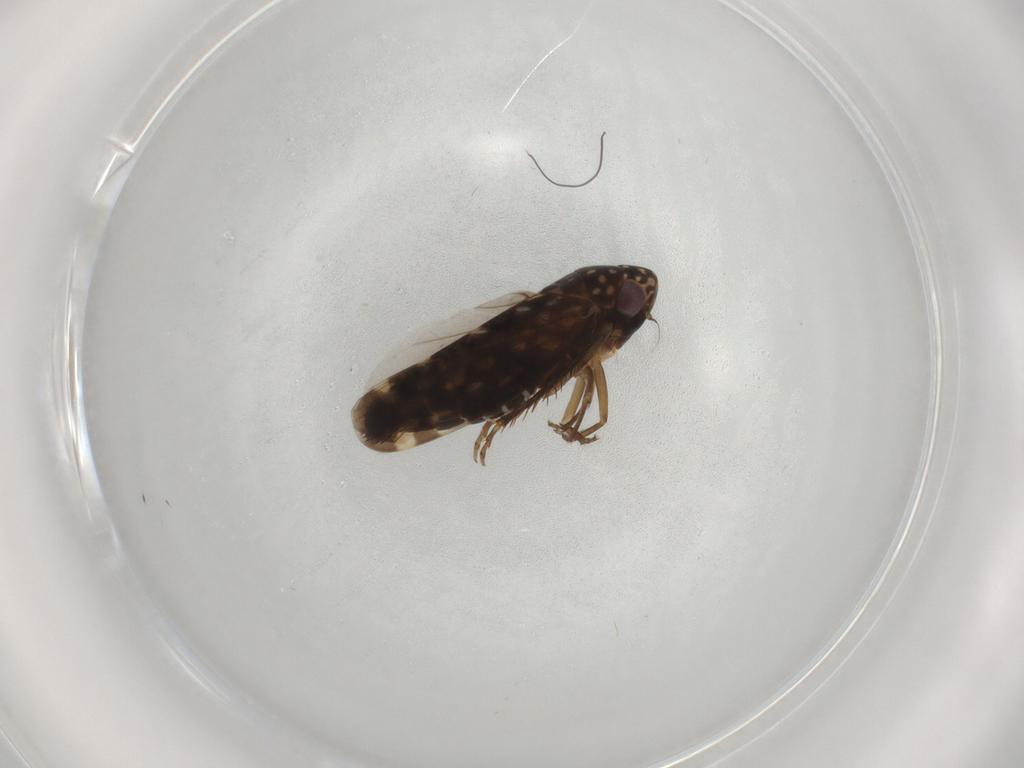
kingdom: Animalia
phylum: Arthropoda
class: Insecta
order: Hemiptera
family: Cicadellidae
